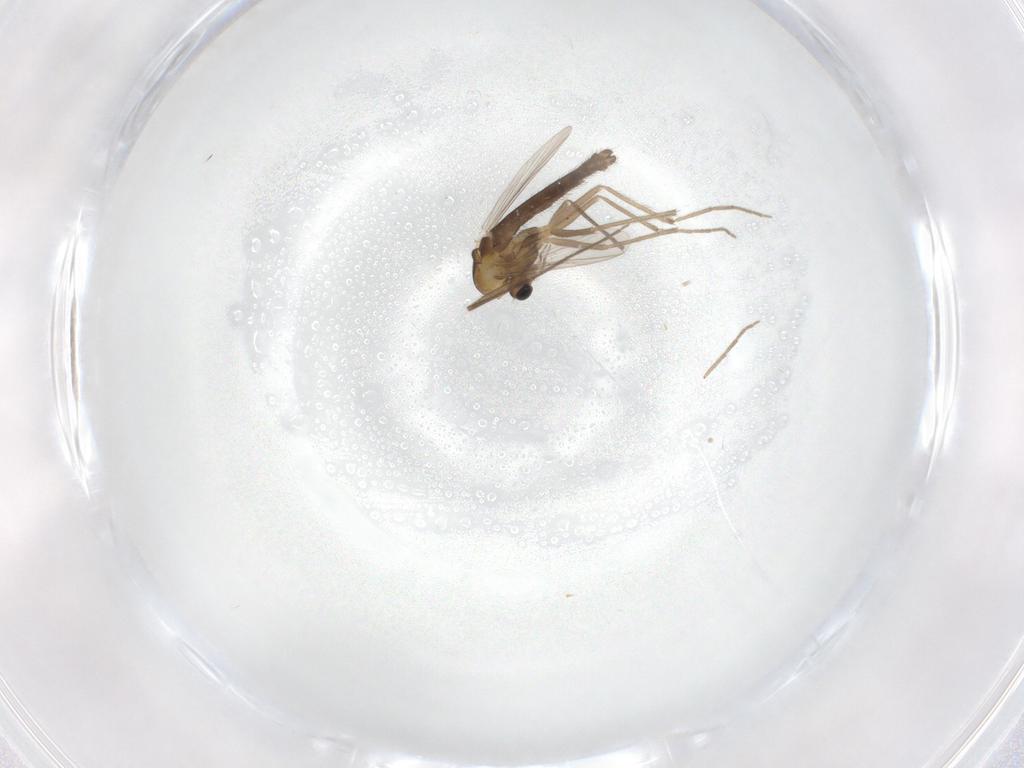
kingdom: Animalia
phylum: Arthropoda
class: Insecta
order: Diptera
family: Chironomidae
